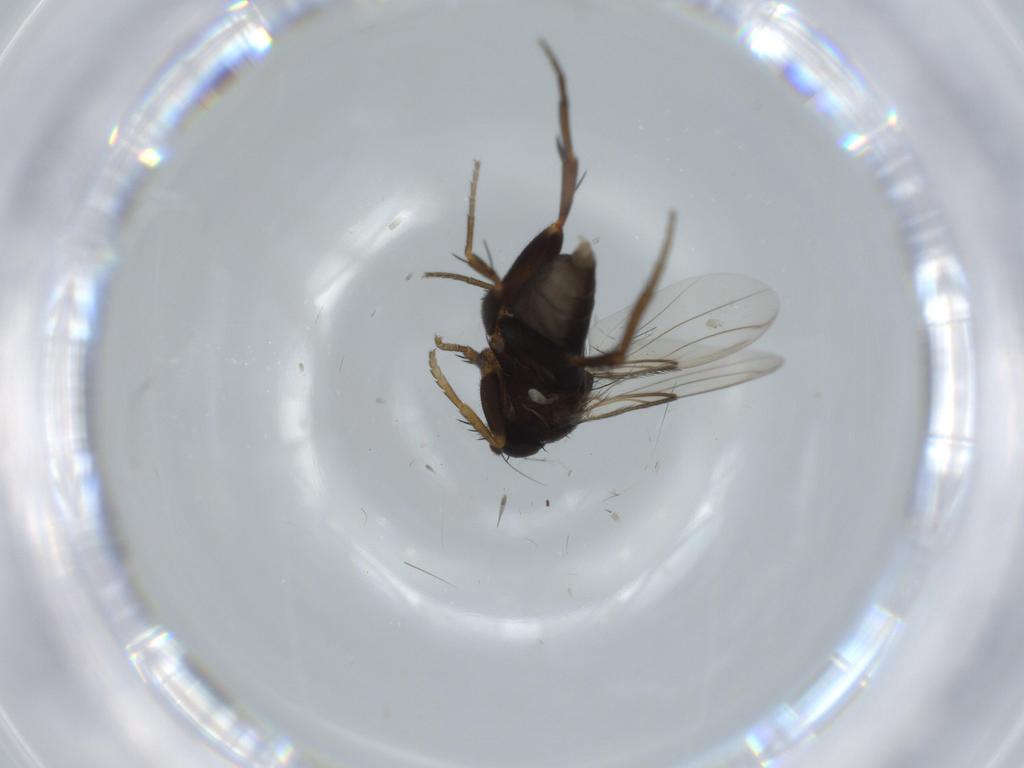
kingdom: Animalia
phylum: Arthropoda
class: Insecta
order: Diptera
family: Phoridae
